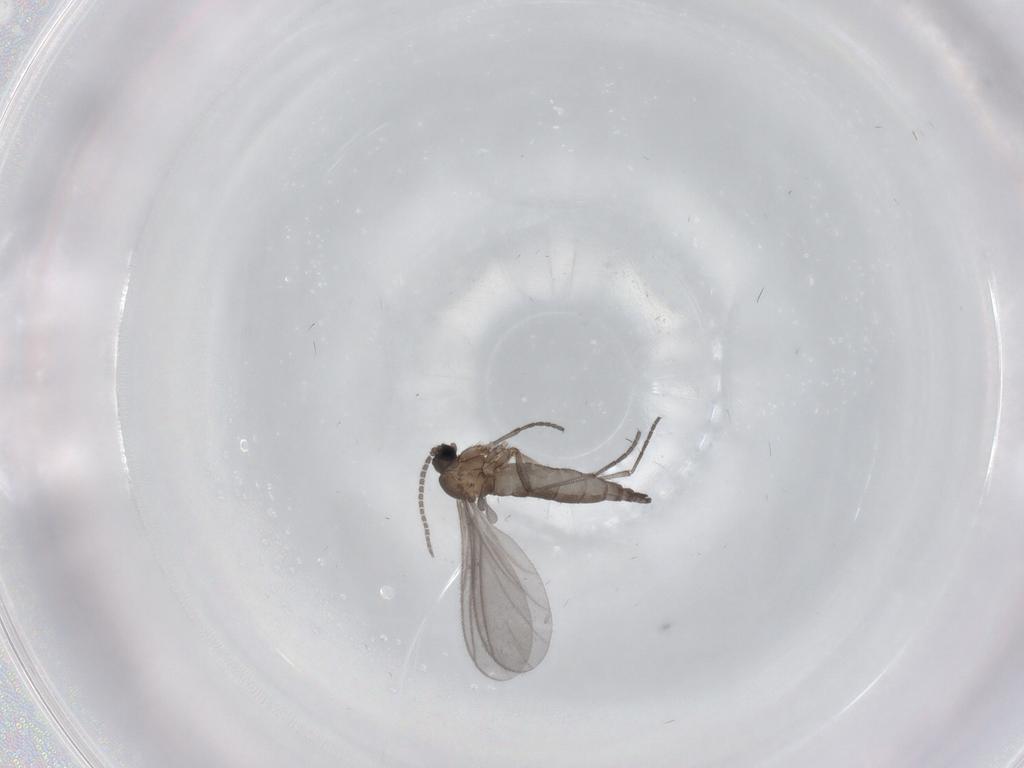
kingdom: Animalia
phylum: Arthropoda
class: Insecta
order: Diptera
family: Sciaridae
